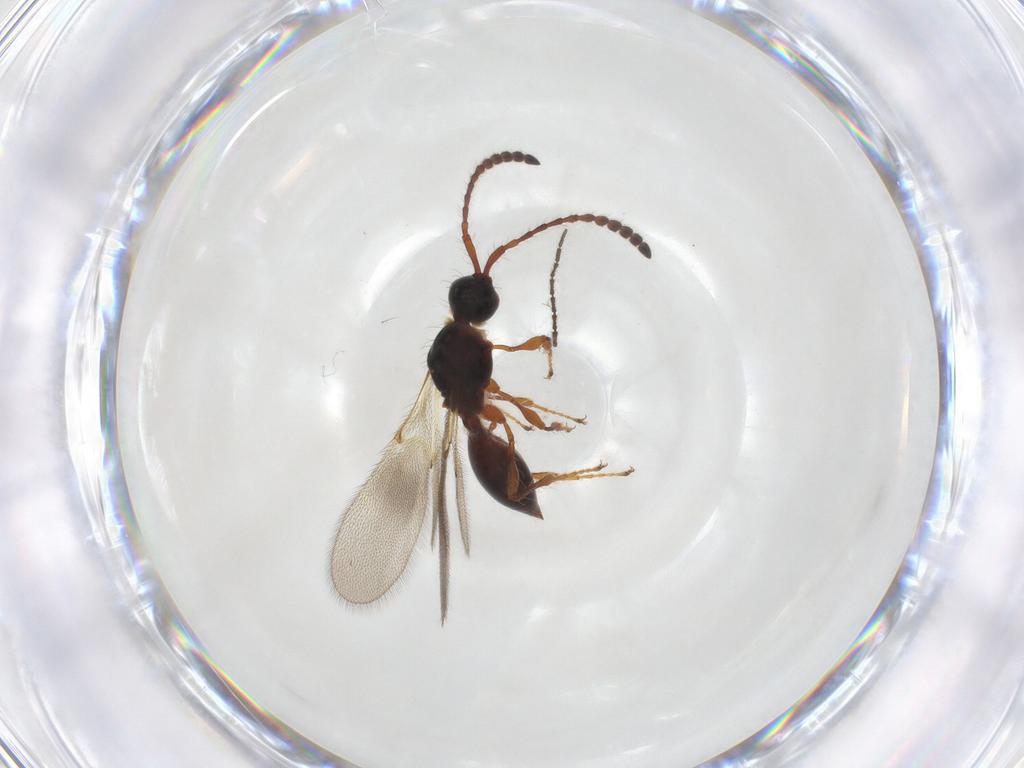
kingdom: Animalia
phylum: Arthropoda
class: Insecta
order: Hymenoptera
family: Diapriidae
